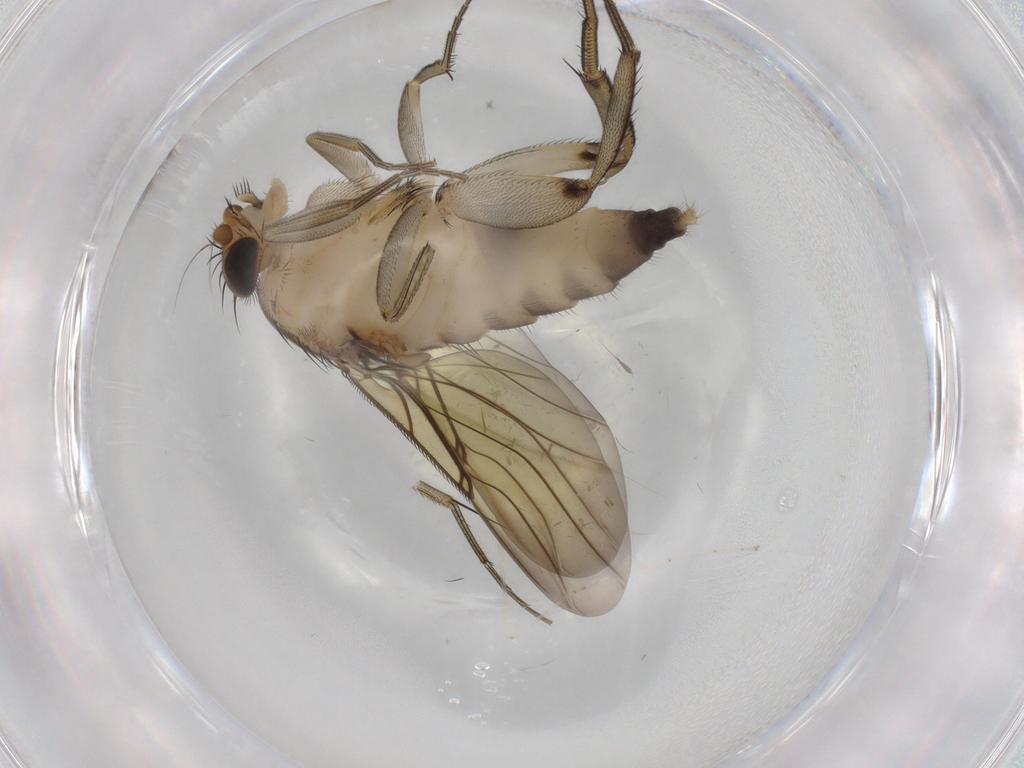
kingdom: Animalia
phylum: Arthropoda
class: Insecta
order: Diptera
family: Phoridae
